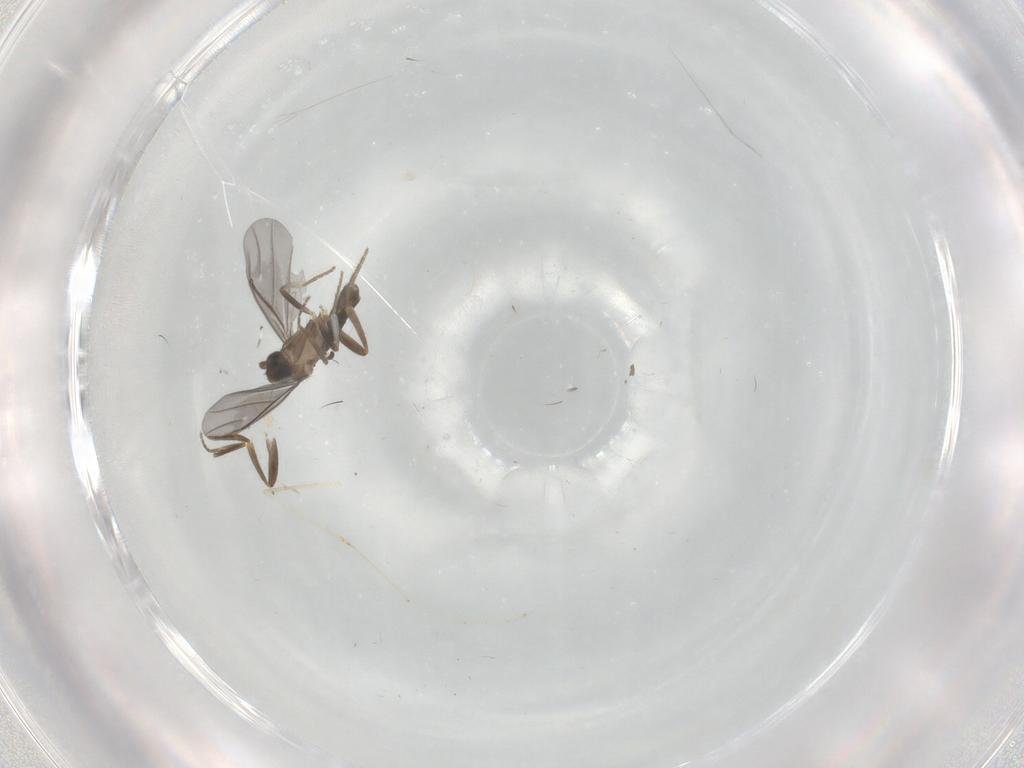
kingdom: Animalia
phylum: Arthropoda
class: Insecta
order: Diptera
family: Cecidomyiidae
